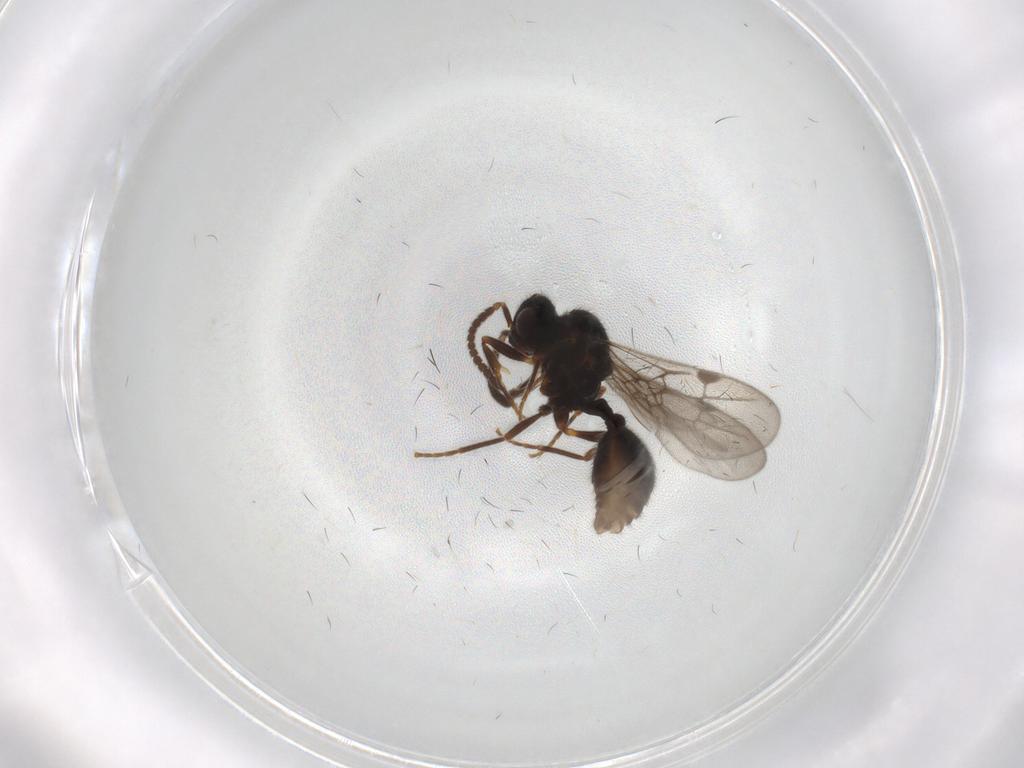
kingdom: Animalia
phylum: Arthropoda
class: Insecta
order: Hymenoptera
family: Formicidae
